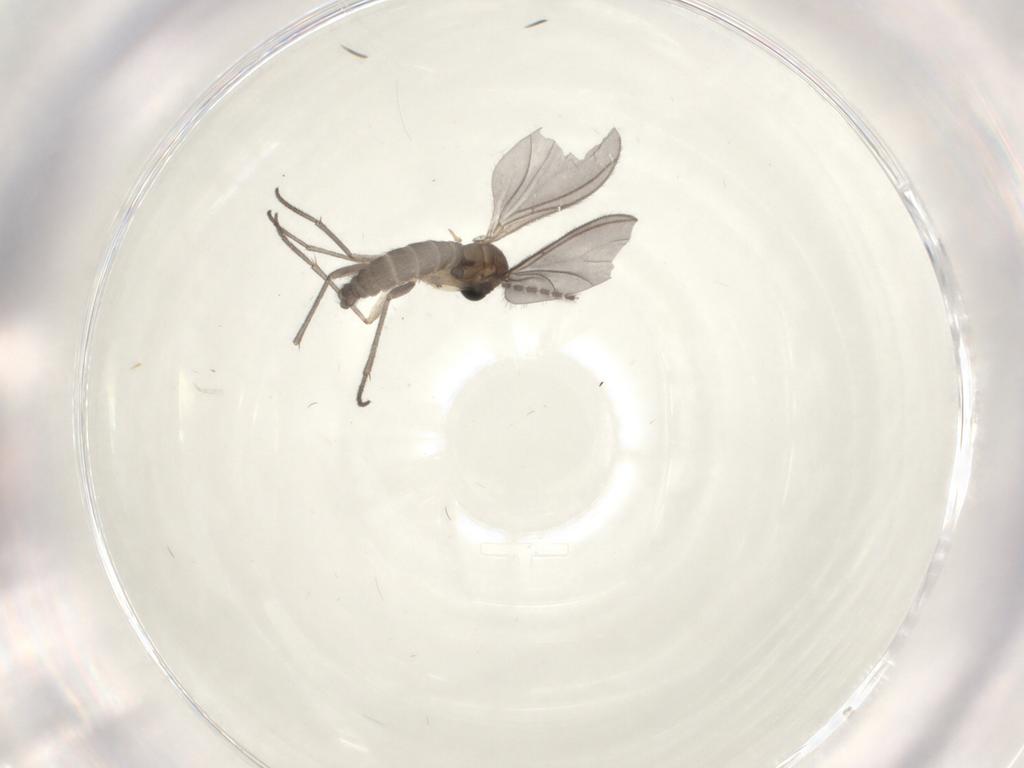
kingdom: Animalia
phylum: Arthropoda
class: Insecta
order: Diptera
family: Sciaridae
